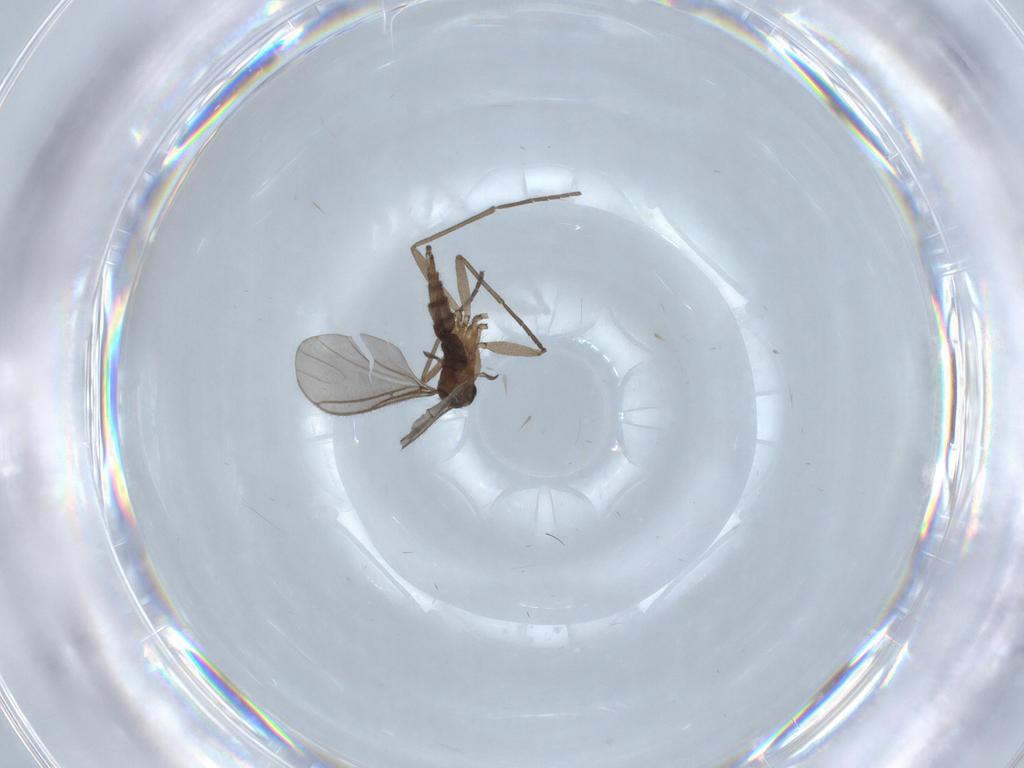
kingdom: Animalia
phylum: Arthropoda
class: Insecta
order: Diptera
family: Sciaridae
